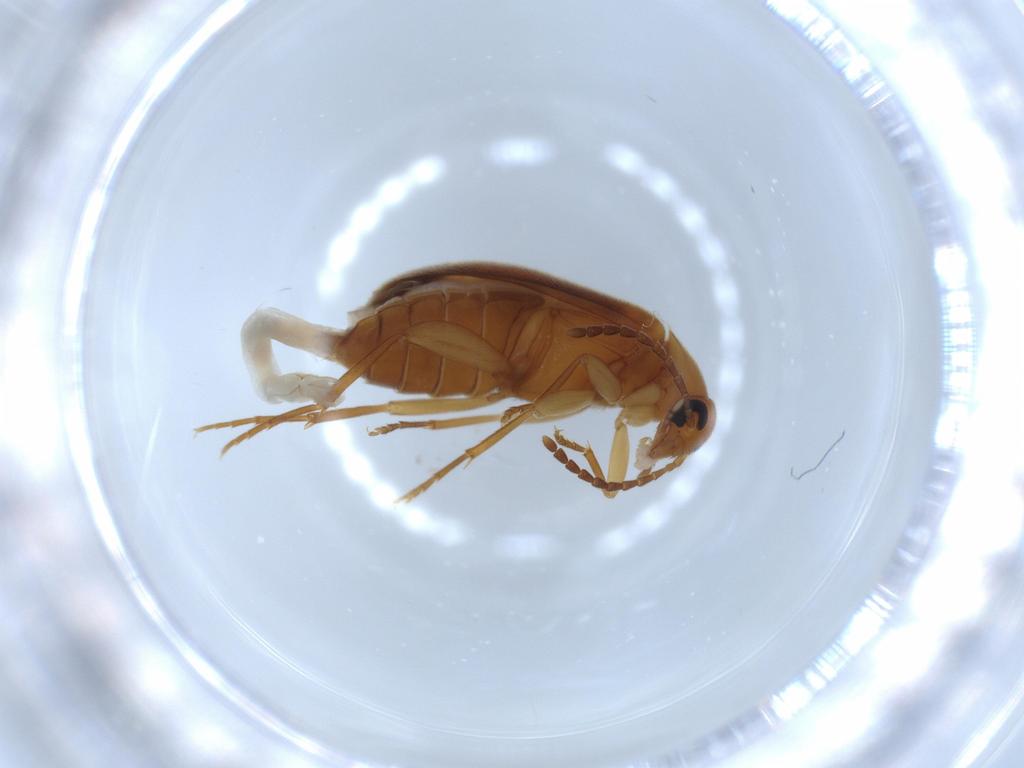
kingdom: Animalia
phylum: Arthropoda
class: Insecta
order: Coleoptera
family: Scraptiidae
